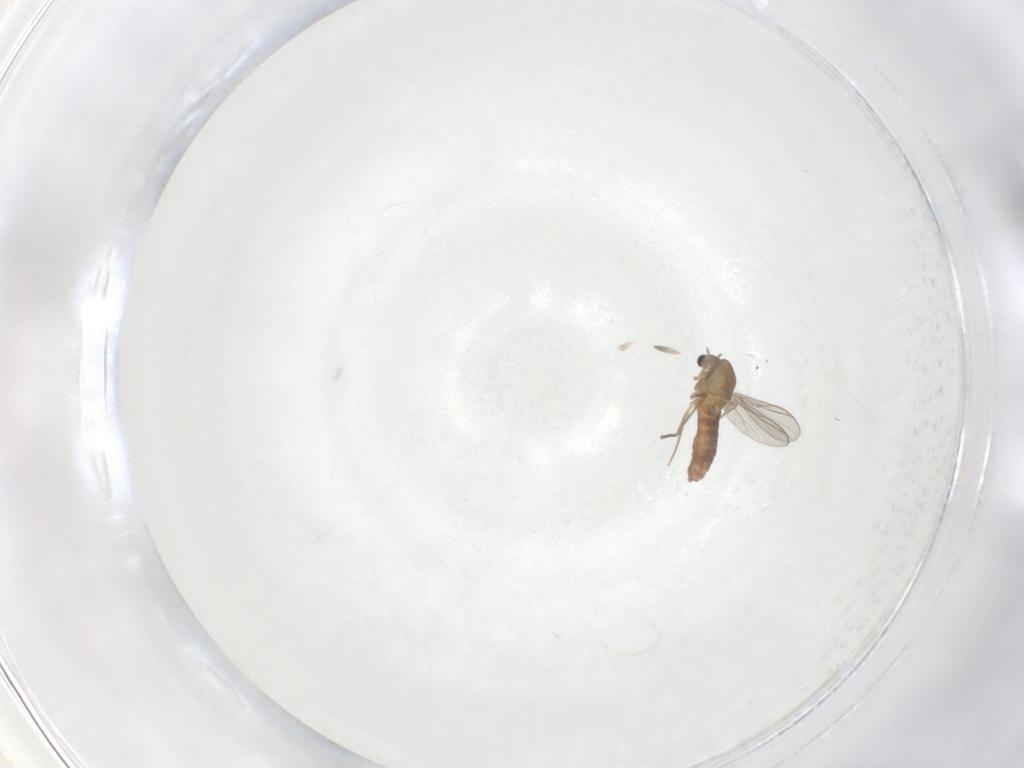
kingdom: Animalia
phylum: Arthropoda
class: Insecta
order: Diptera
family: Chironomidae
